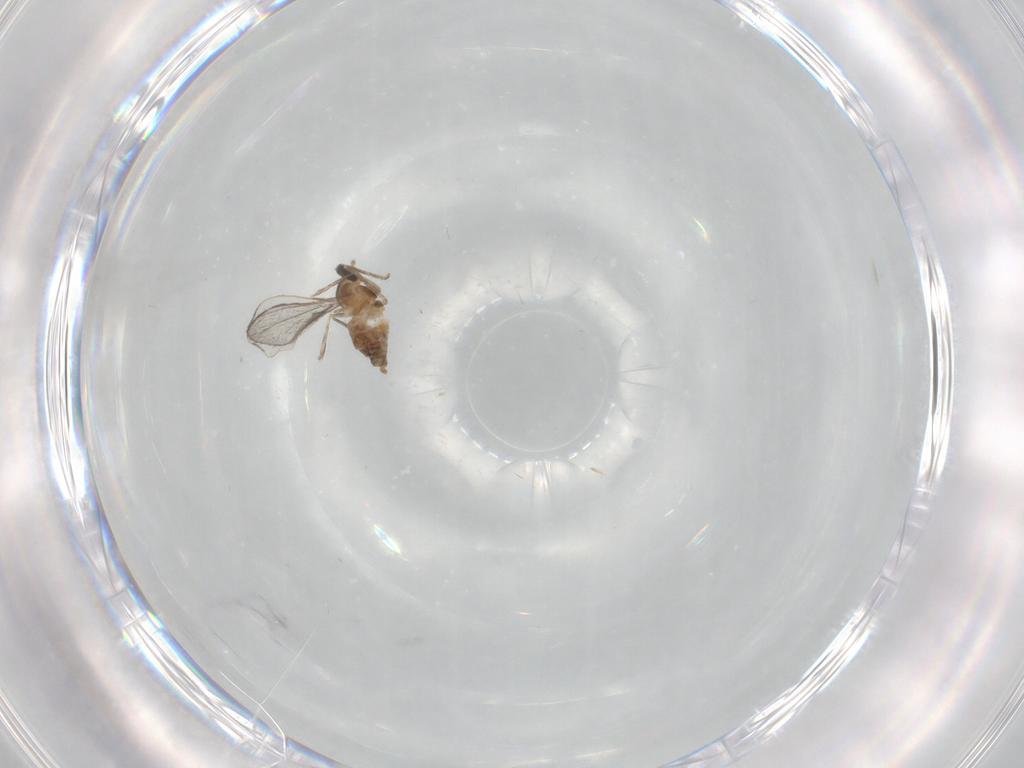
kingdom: Animalia
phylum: Arthropoda
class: Insecta
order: Diptera
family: Cecidomyiidae
